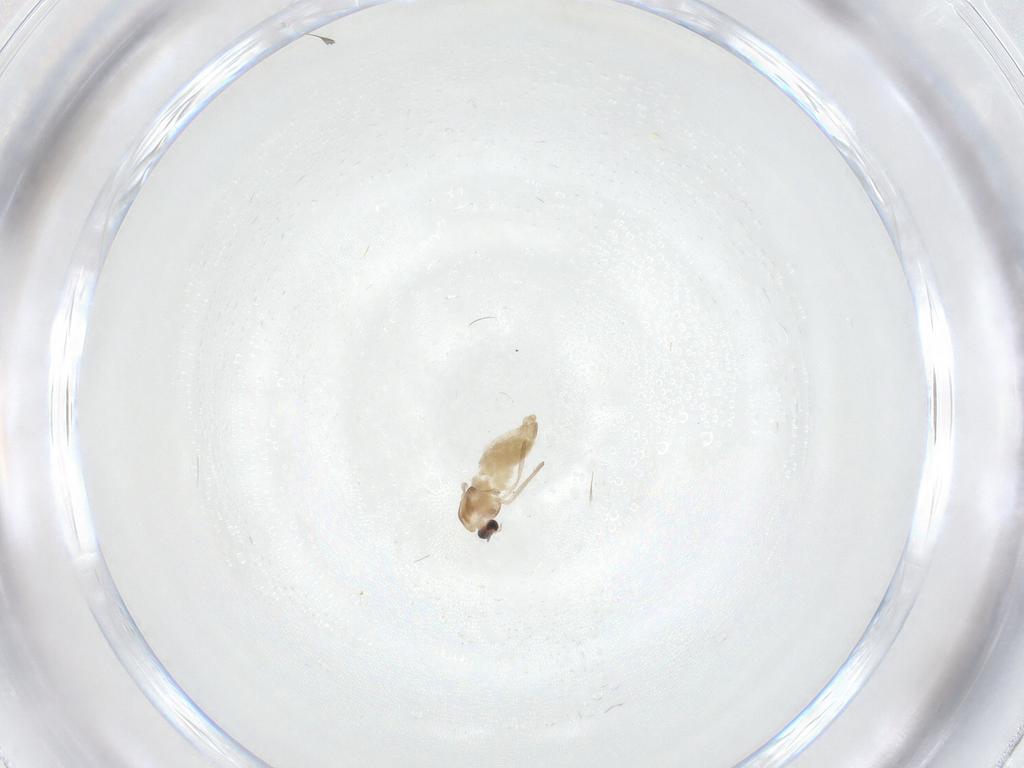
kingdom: Animalia
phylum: Arthropoda
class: Insecta
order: Diptera
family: Chironomidae
